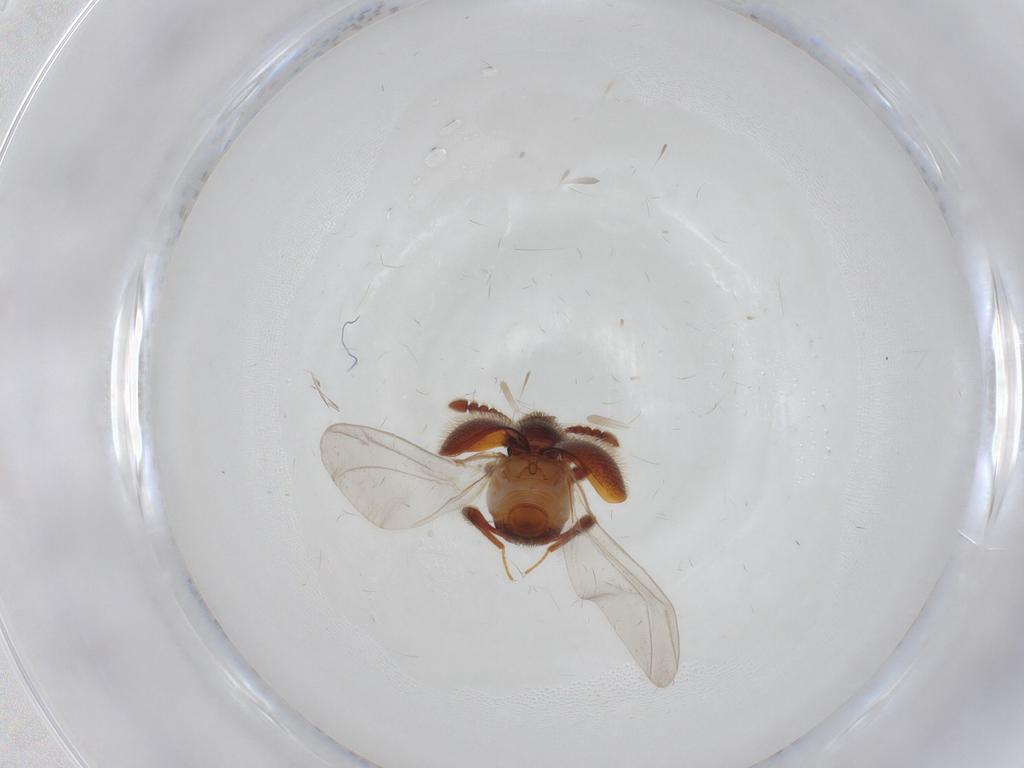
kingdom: Animalia
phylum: Arthropoda
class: Insecta
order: Coleoptera
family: Staphylinidae
